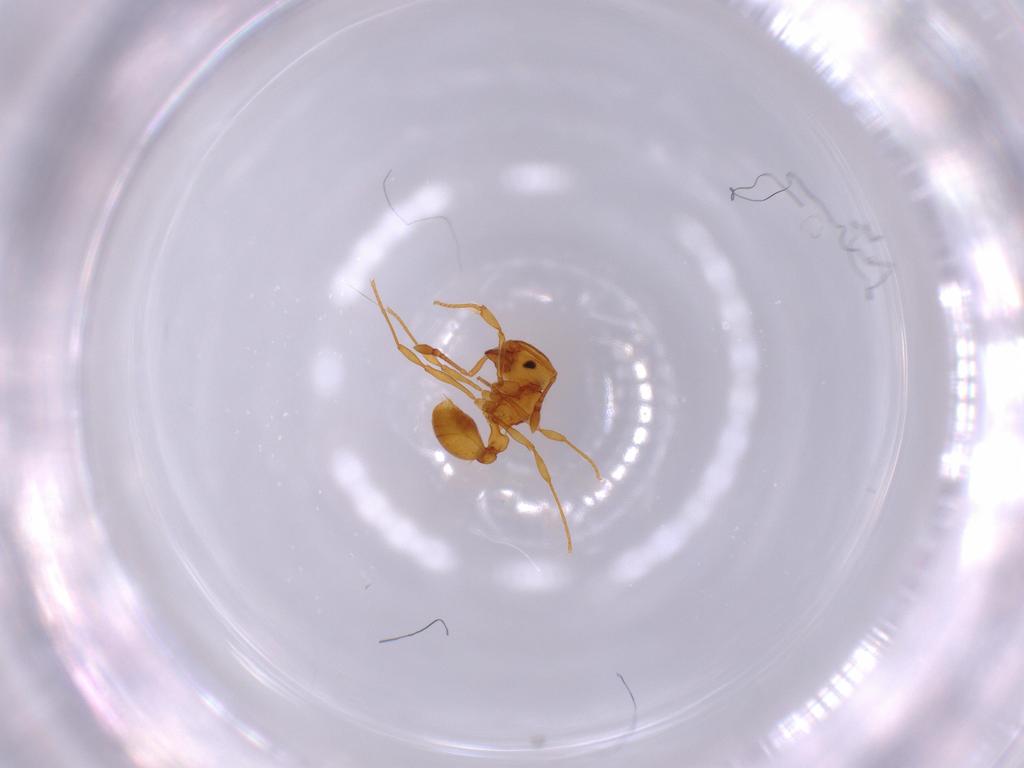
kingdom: Animalia
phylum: Arthropoda
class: Insecta
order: Hymenoptera
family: Formicidae
